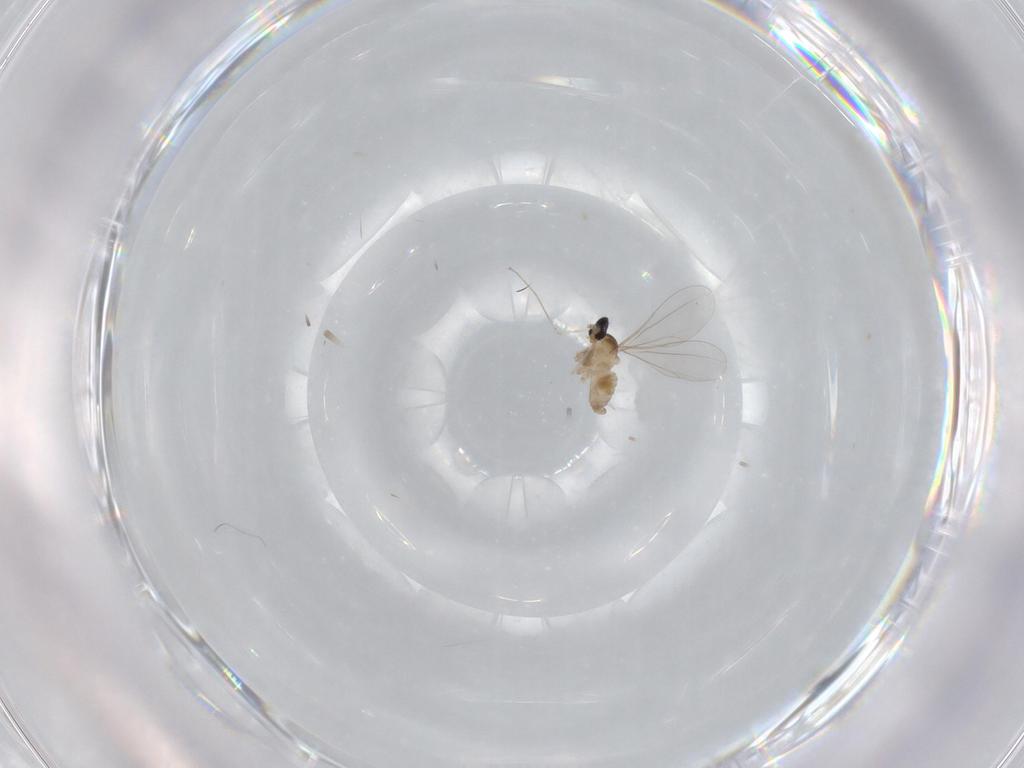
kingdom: Animalia
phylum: Arthropoda
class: Insecta
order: Diptera
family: Cecidomyiidae
